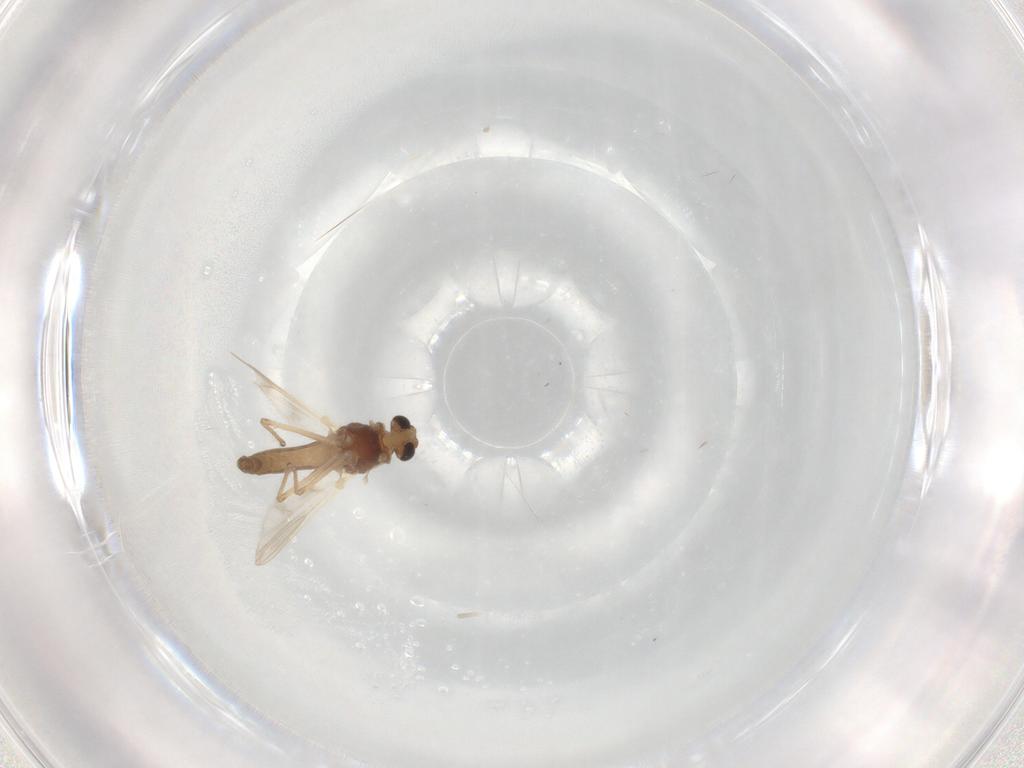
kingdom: Animalia
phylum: Arthropoda
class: Insecta
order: Diptera
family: Chironomidae
